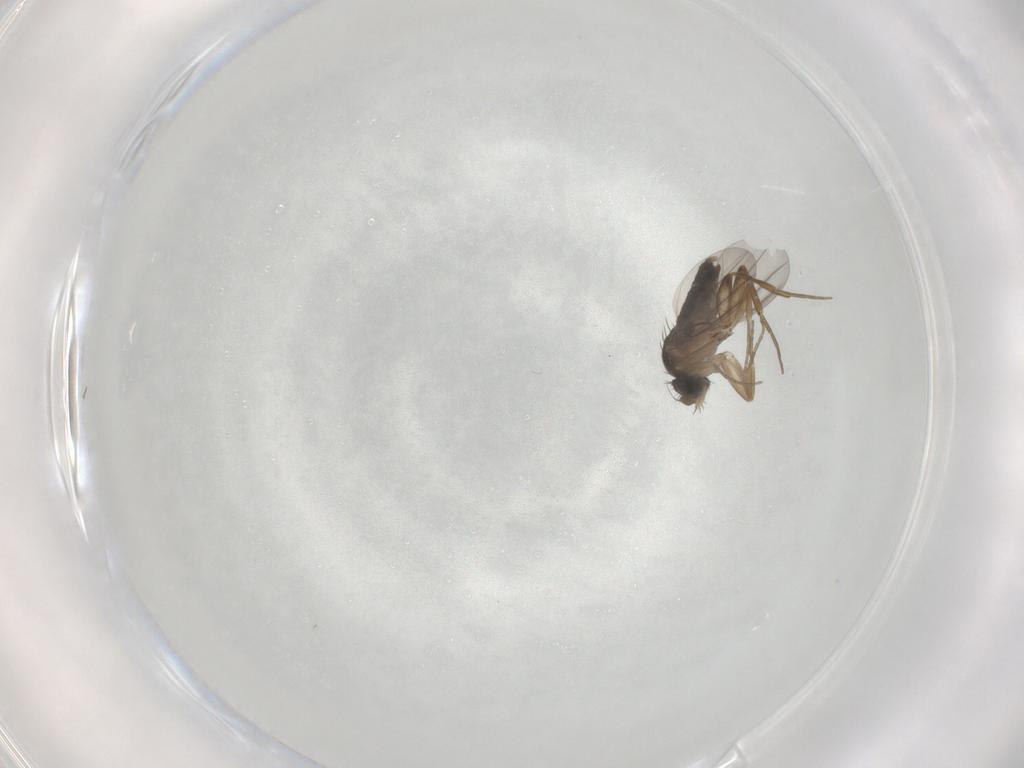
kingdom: Animalia
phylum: Arthropoda
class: Insecta
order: Diptera
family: Phoridae
